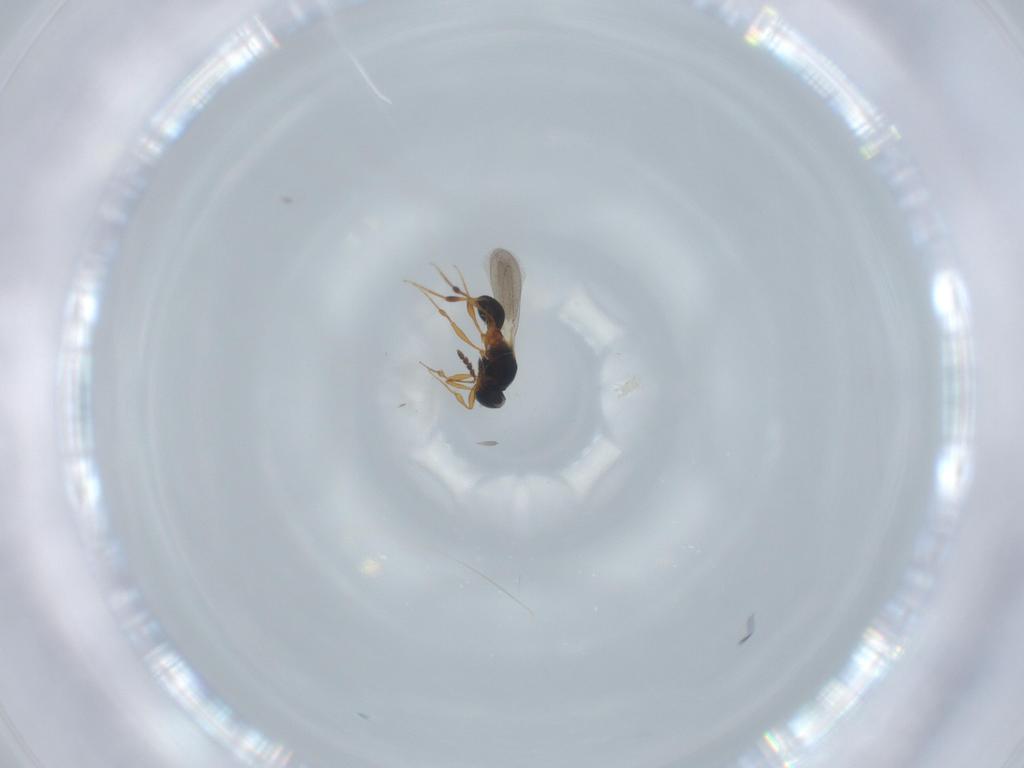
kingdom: Animalia
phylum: Arthropoda
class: Insecta
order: Hymenoptera
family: Platygastridae
